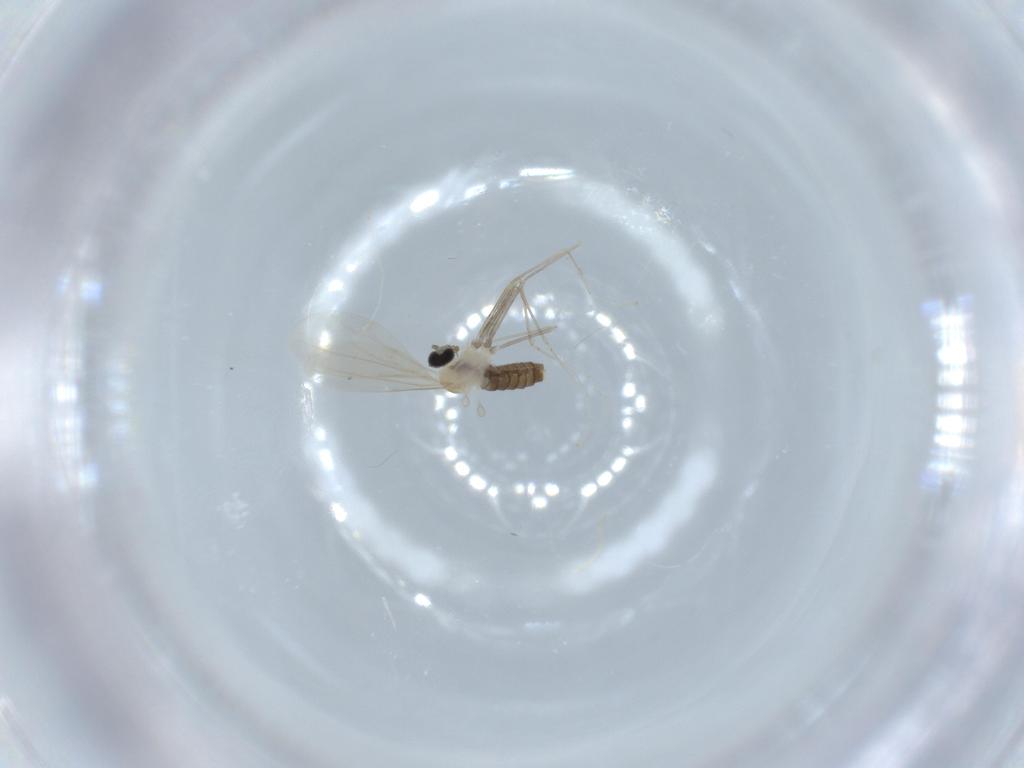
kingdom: Animalia
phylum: Arthropoda
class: Insecta
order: Diptera
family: Cecidomyiidae
